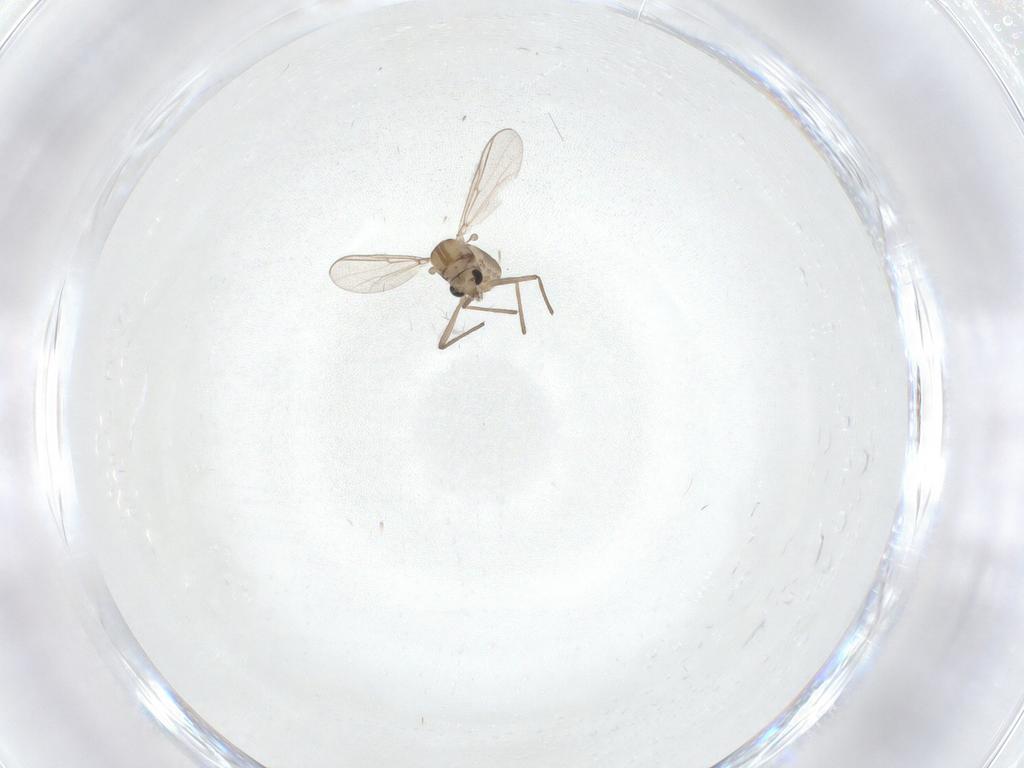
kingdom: Animalia
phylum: Arthropoda
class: Insecta
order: Diptera
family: Chironomidae
